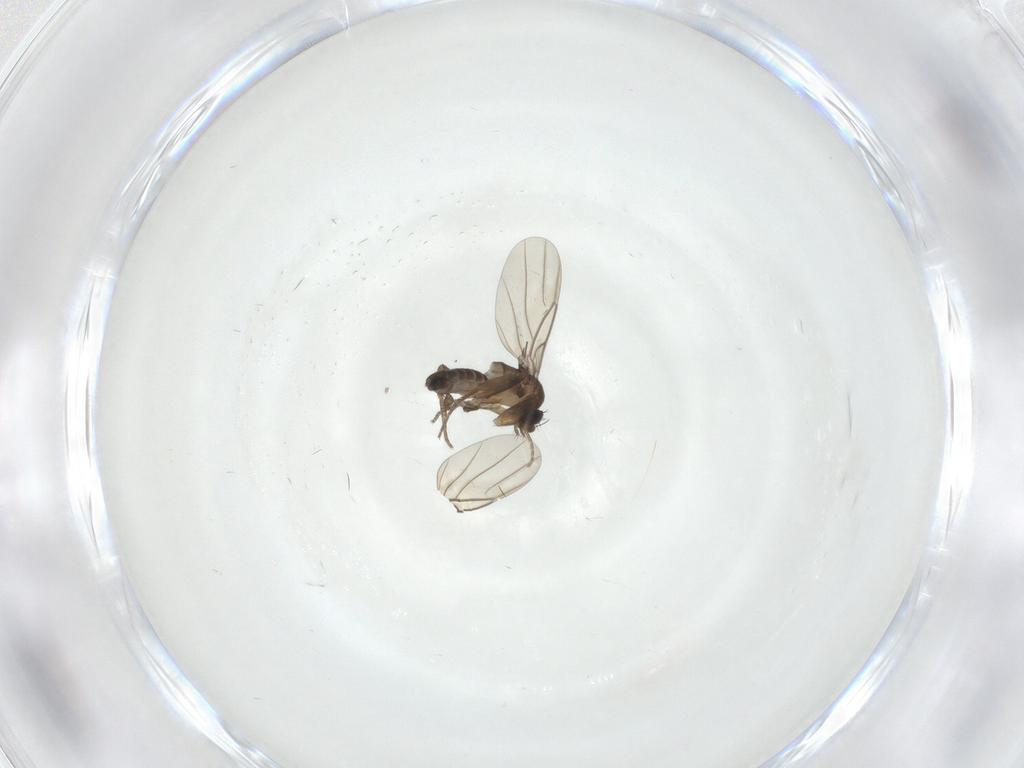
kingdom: Animalia
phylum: Arthropoda
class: Insecta
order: Diptera
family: Phoridae
